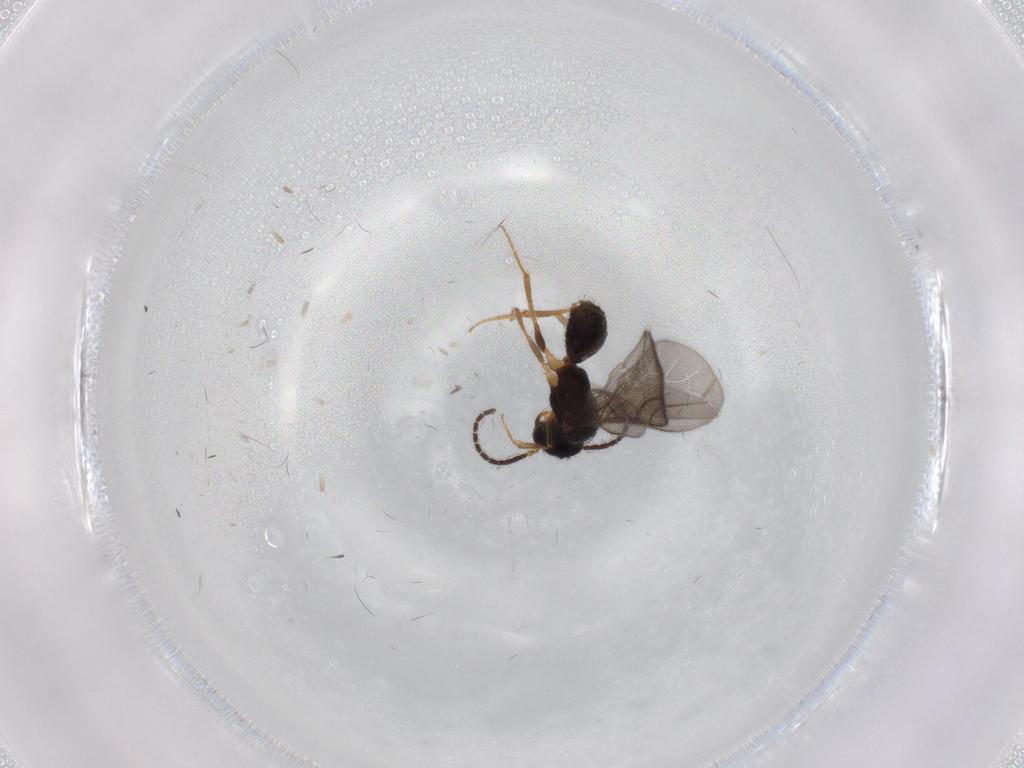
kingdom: Animalia
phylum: Arthropoda
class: Insecta
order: Hymenoptera
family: Bethylidae
